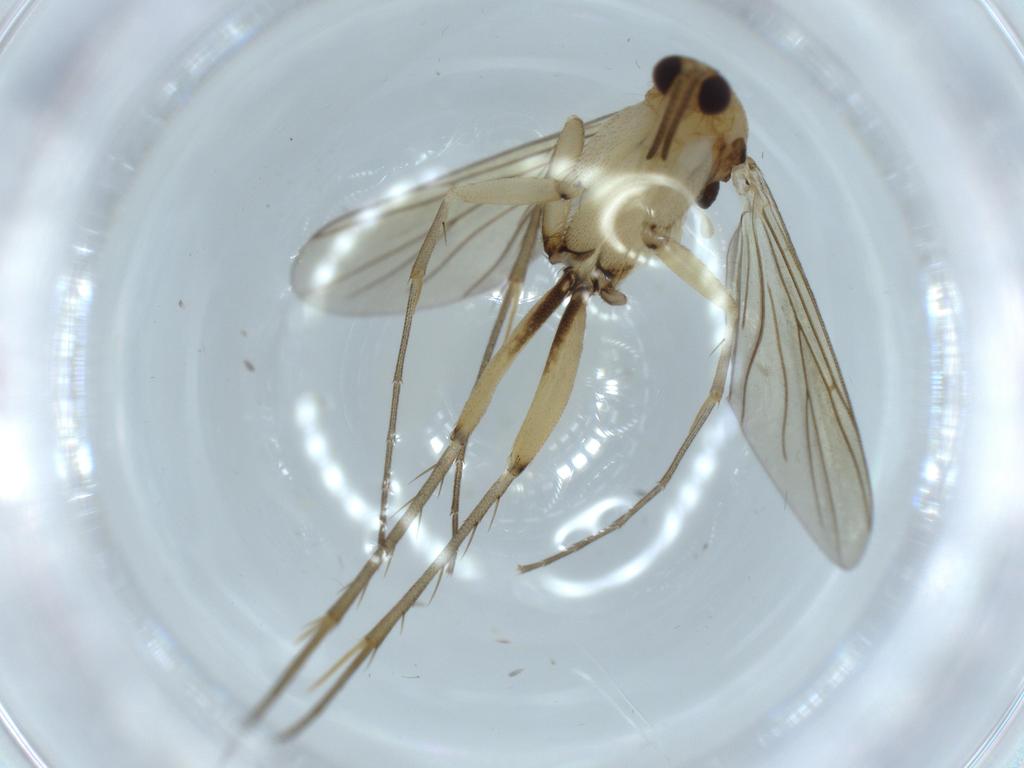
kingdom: Animalia
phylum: Arthropoda
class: Insecta
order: Diptera
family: Mycetophilidae
